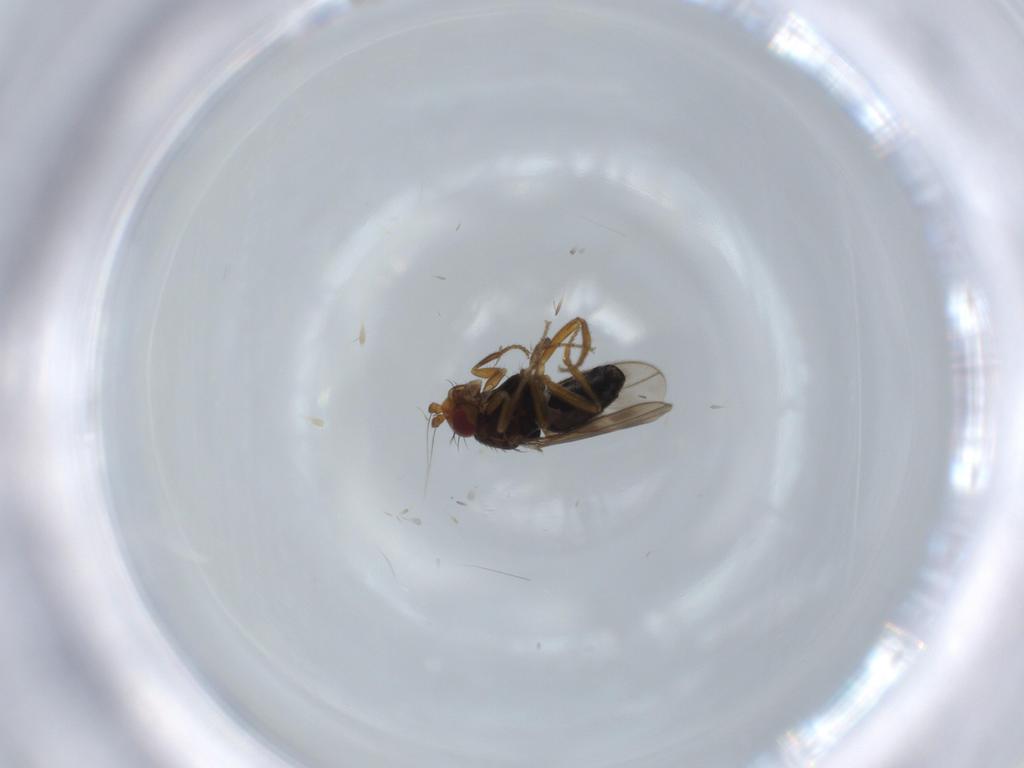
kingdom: Animalia
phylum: Arthropoda
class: Insecta
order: Diptera
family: Sphaeroceridae
